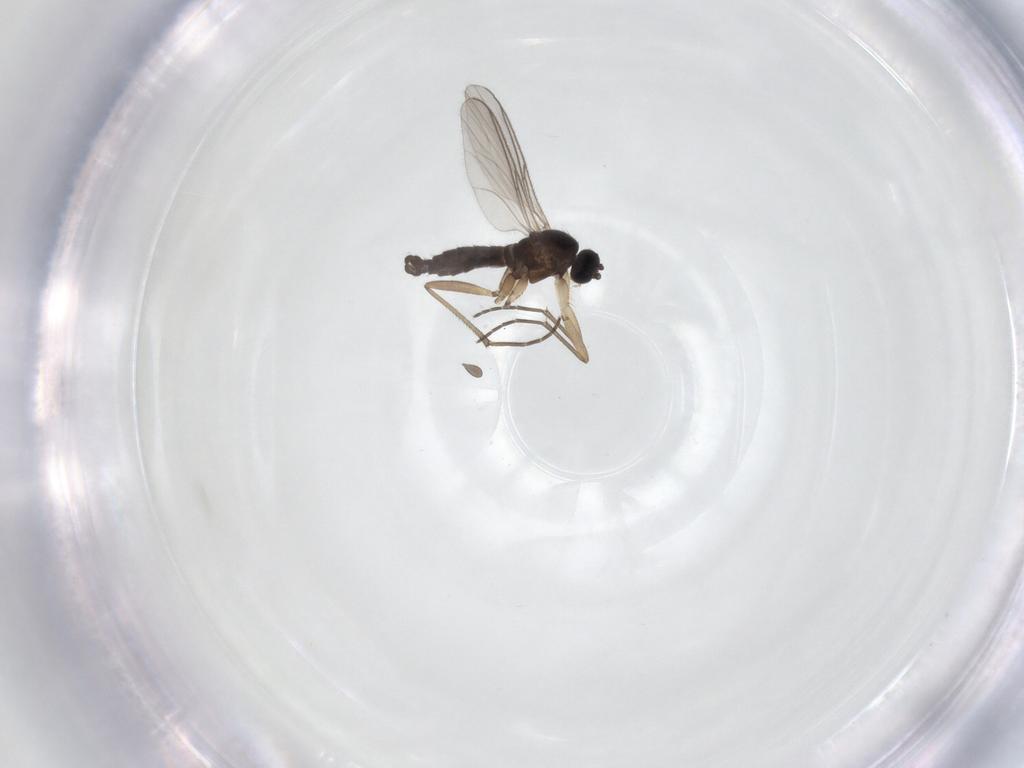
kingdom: Animalia
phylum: Arthropoda
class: Insecta
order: Diptera
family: Sciaridae
